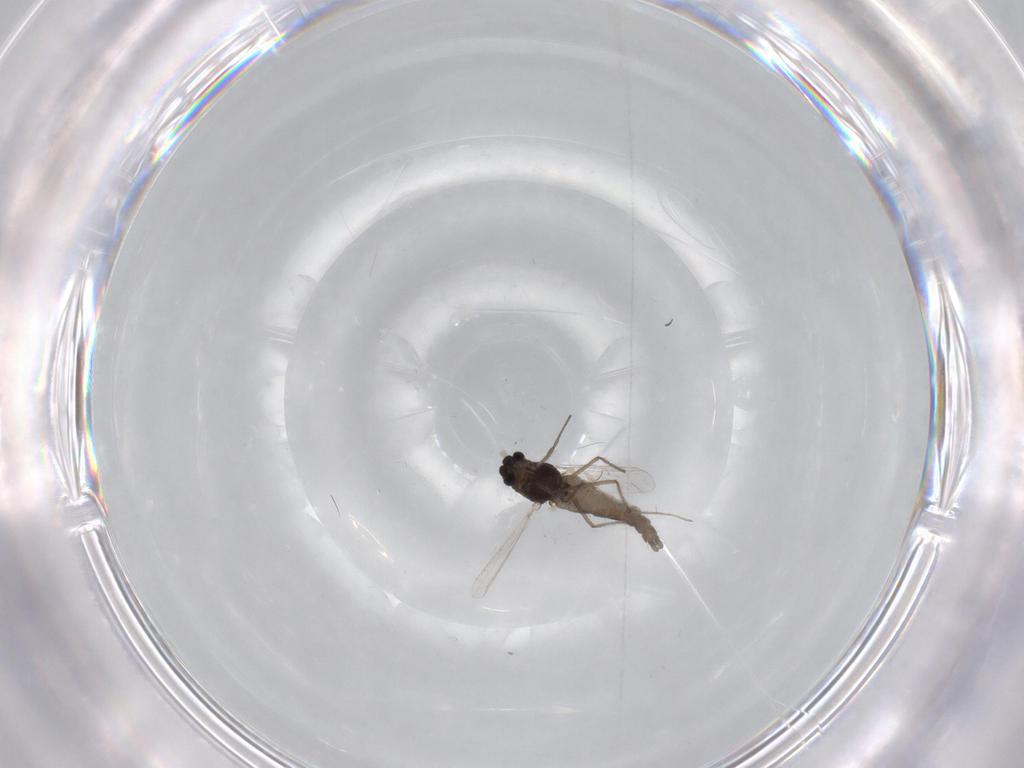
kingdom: Animalia
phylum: Arthropoda
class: Insecta
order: Diptera
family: Chironomidae
